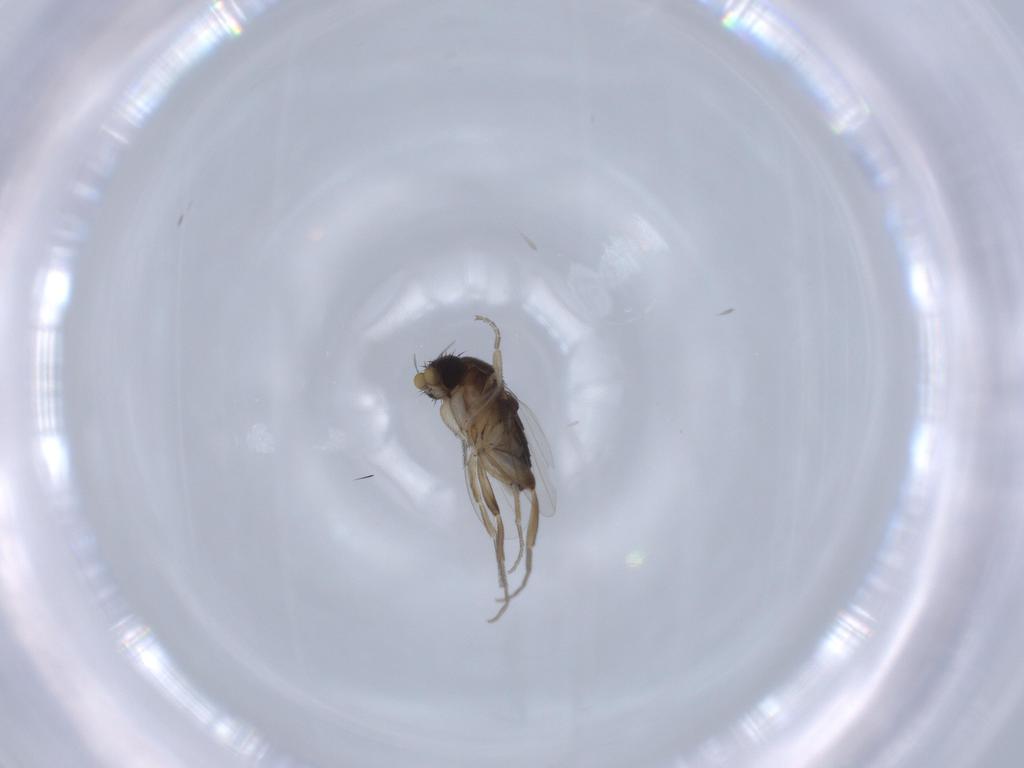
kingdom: Animalia
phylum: Arthropoda
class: Insecta
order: Diptera
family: Phoridae
